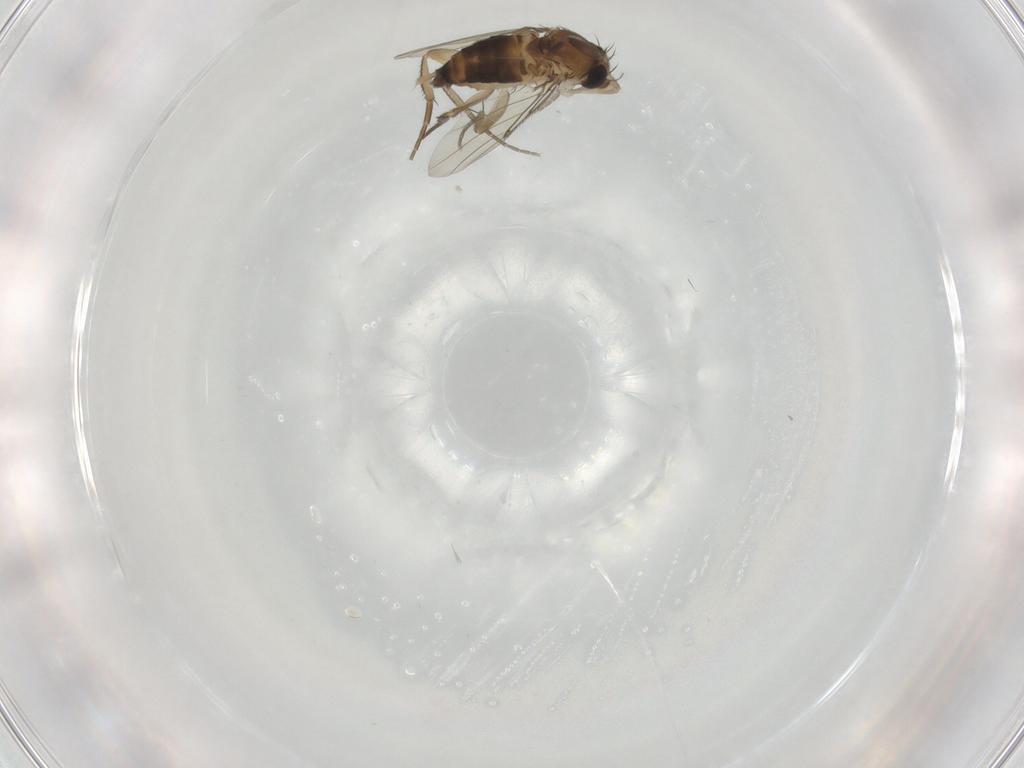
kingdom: Animalia
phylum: Arthropoda
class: Insecta
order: Diptera
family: Phoridae
